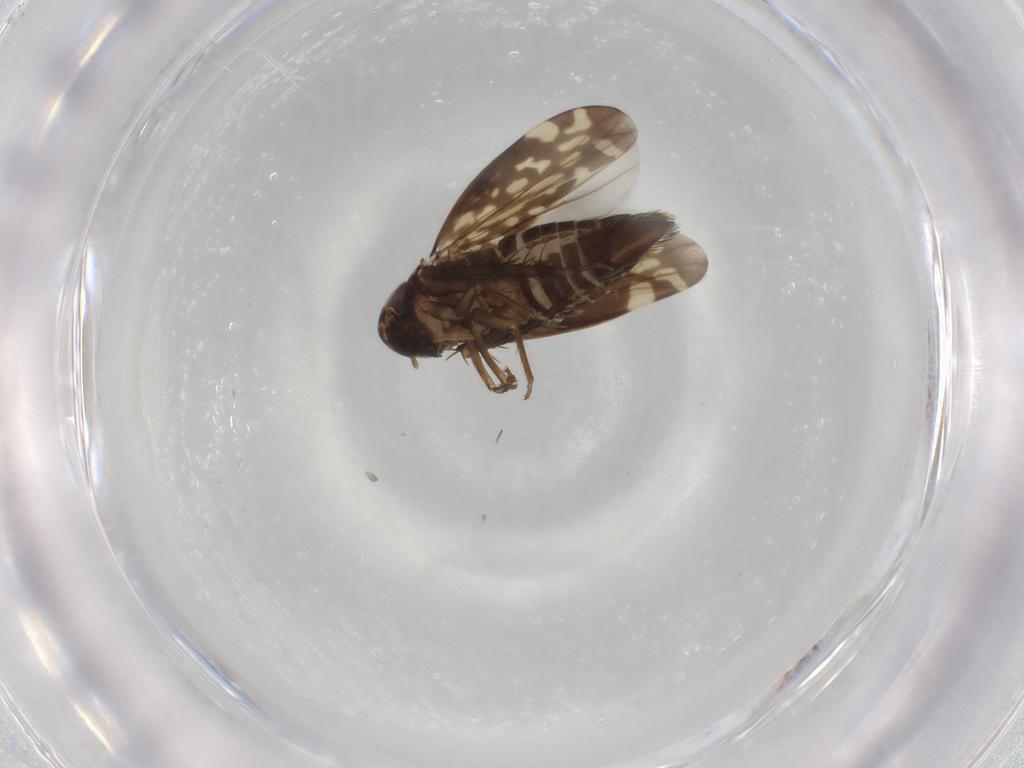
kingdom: Animalia
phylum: Arthropoda
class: Insecta
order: Hemiptera
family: Cicadellidae
